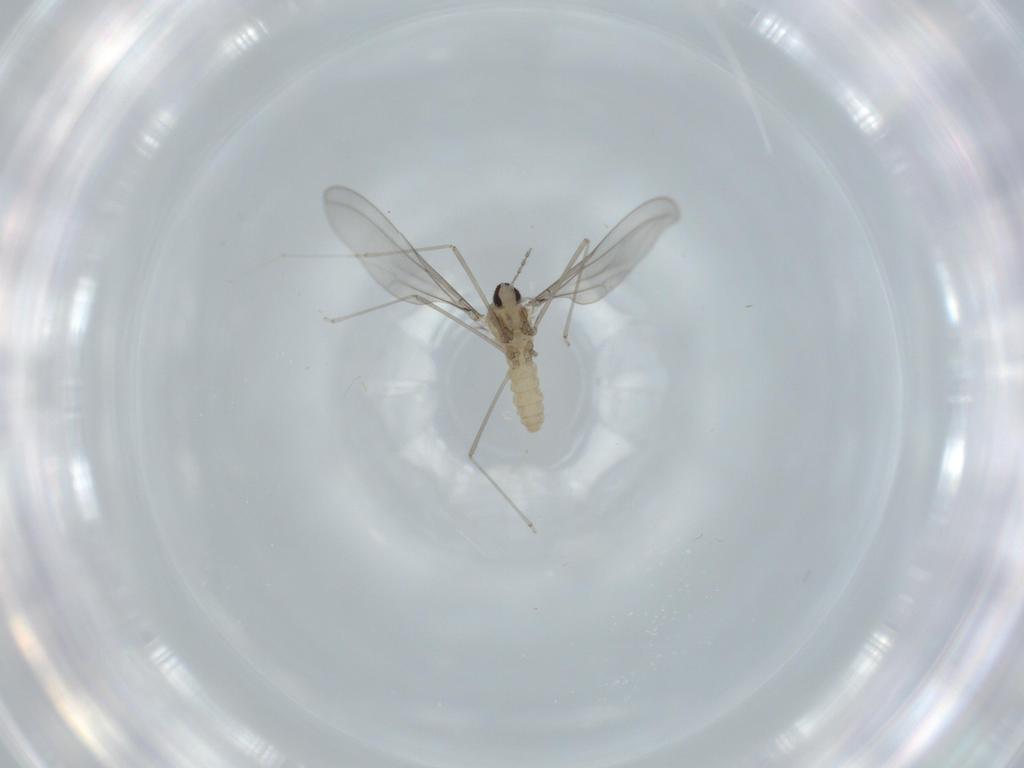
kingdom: Animalia
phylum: Arthropoda
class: Insecta
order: Diptera
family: Cecidomyiidae
